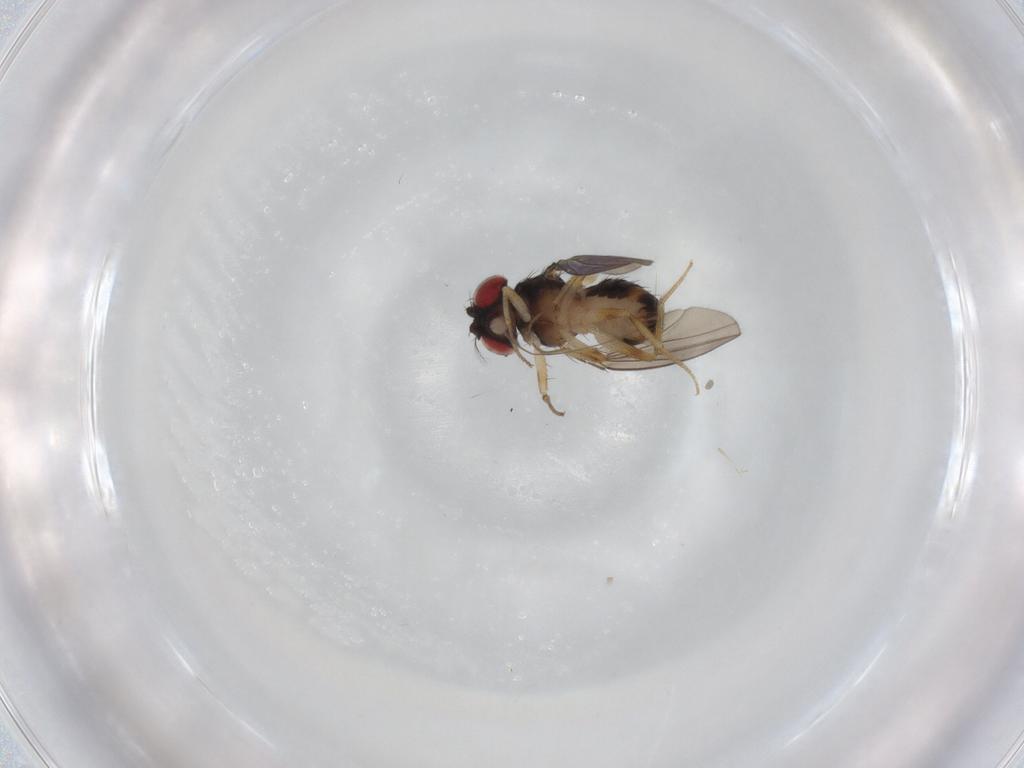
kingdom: Animalia
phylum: Arthropoda
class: Insecta
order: Diptera
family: Drosophilidae
